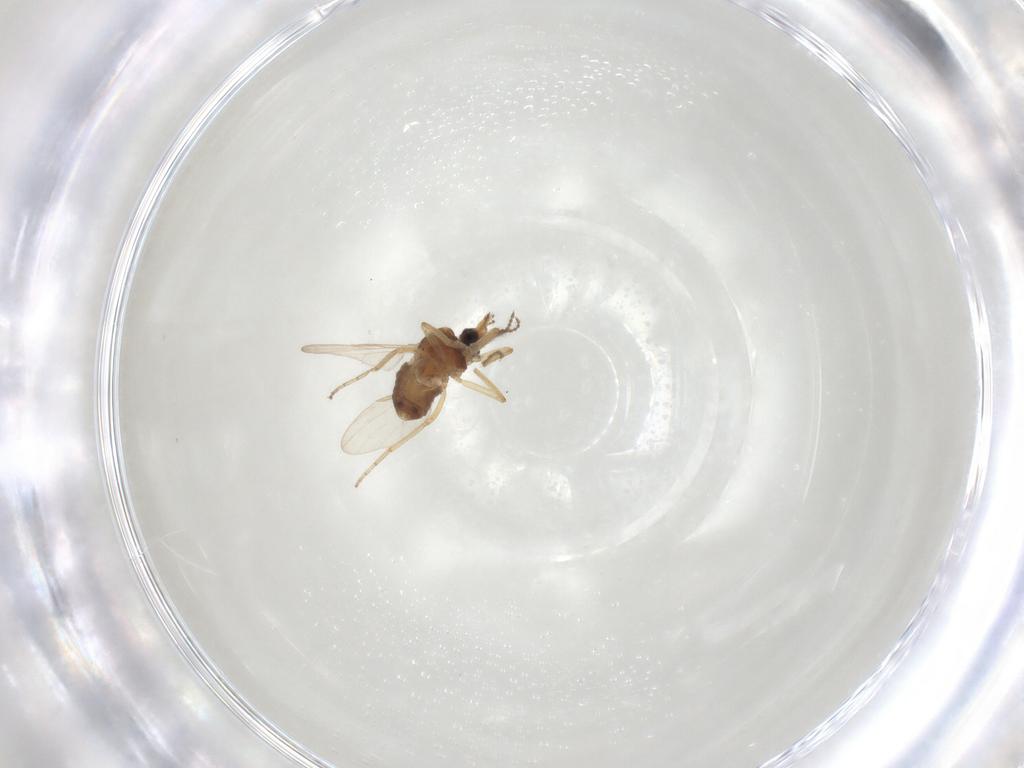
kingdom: Animalia
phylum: Arthropoda
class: Insecta
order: Diptera
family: Ceratopogonidae
